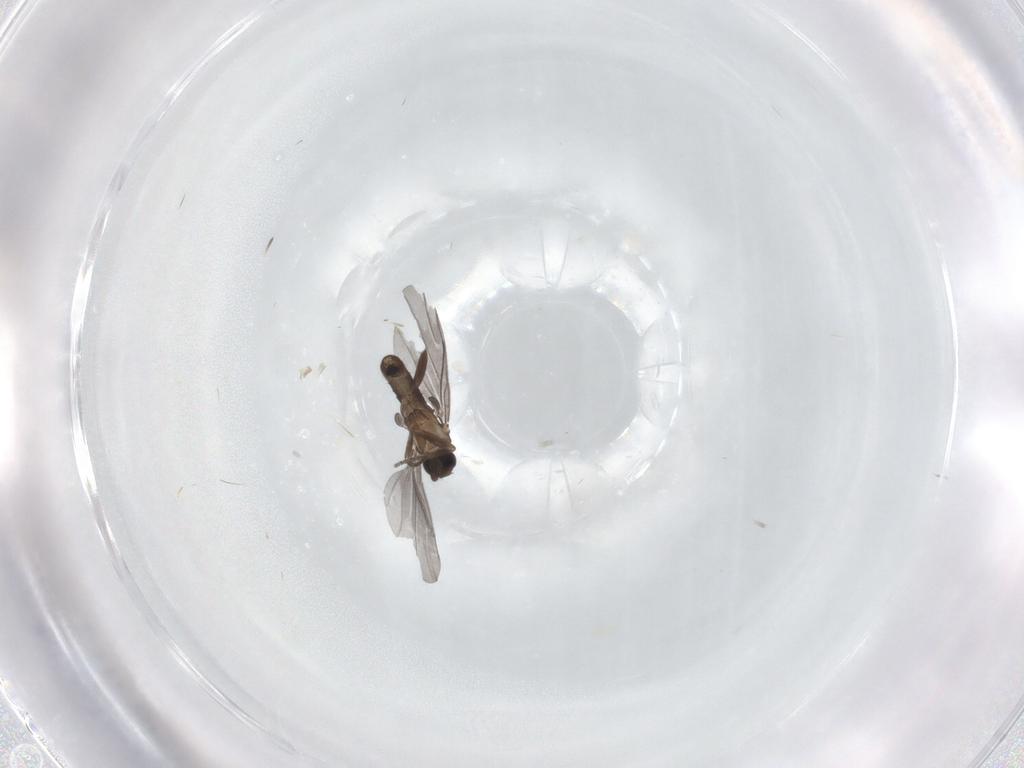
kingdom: Animalia
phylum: Arthropoda
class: Insecta
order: Diptera
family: Phoridae
